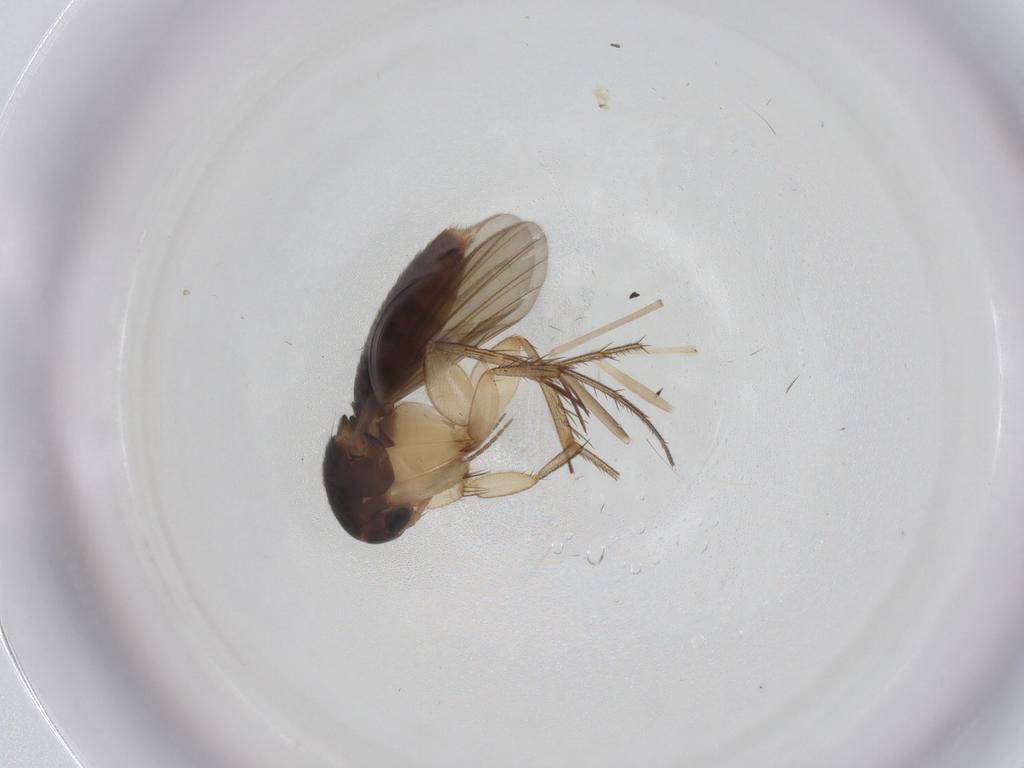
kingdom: Animalia
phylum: Arthropoda
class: Insecta
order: Diptera
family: Mycetophilidae
